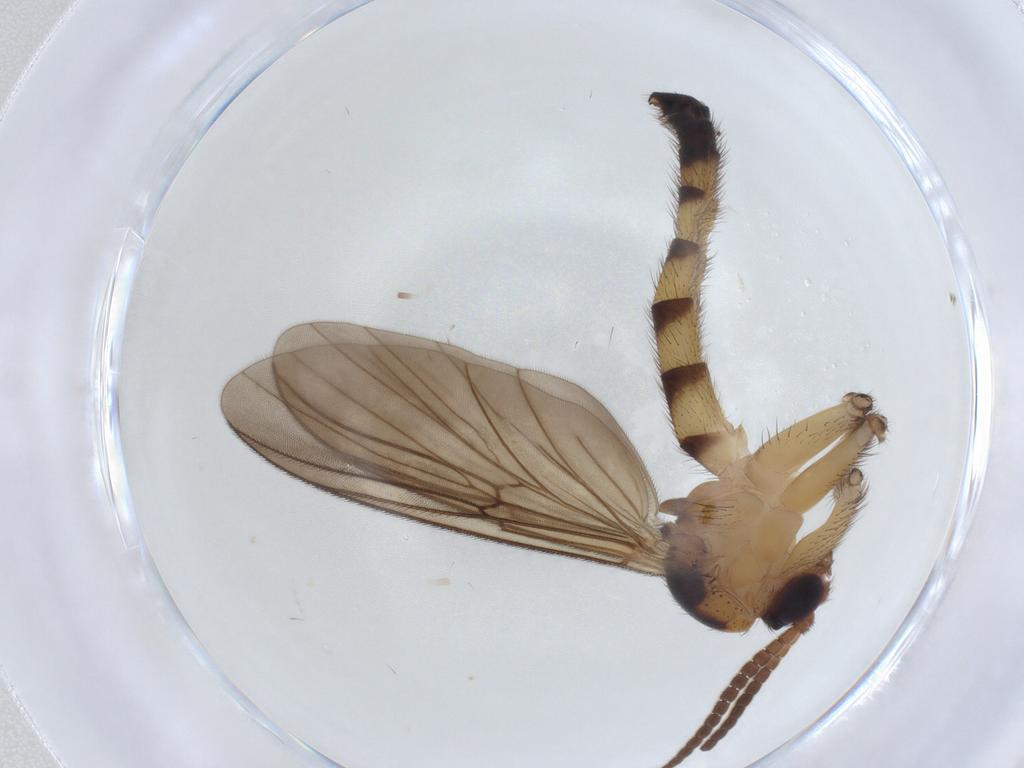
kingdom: Animalia
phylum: Arthropoda
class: Insecta
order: Diptera
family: Mycetophilidae
